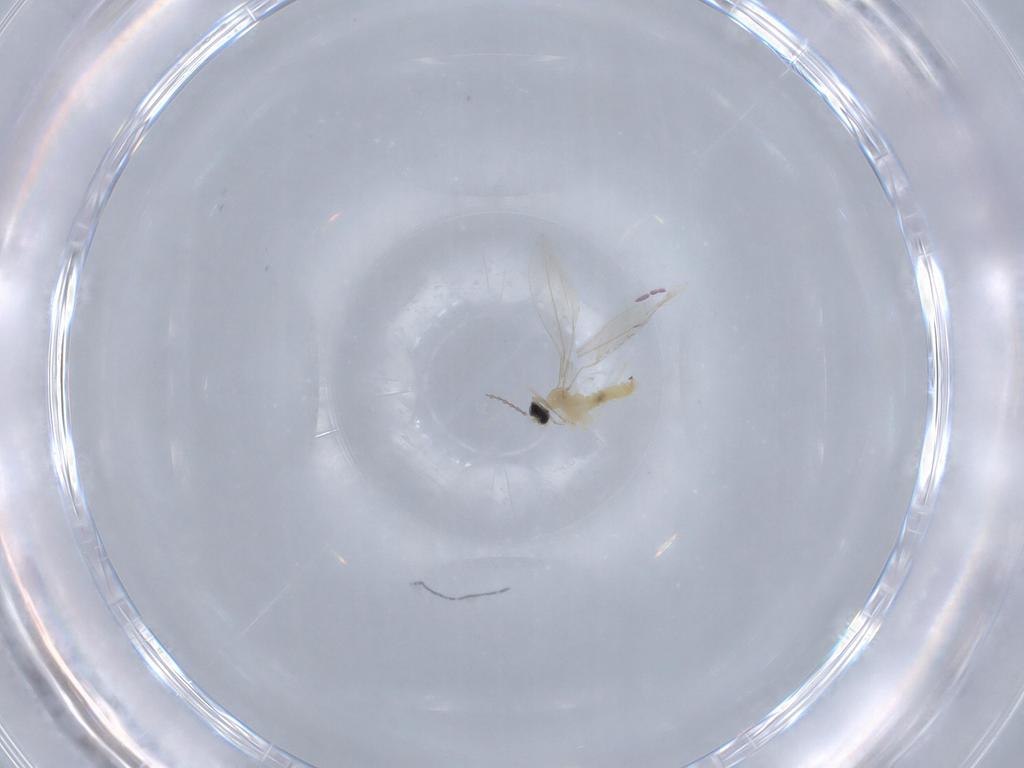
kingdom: Animalia
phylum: Arthropoda
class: Insecta
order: Diptera
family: Cecidomyiidae
